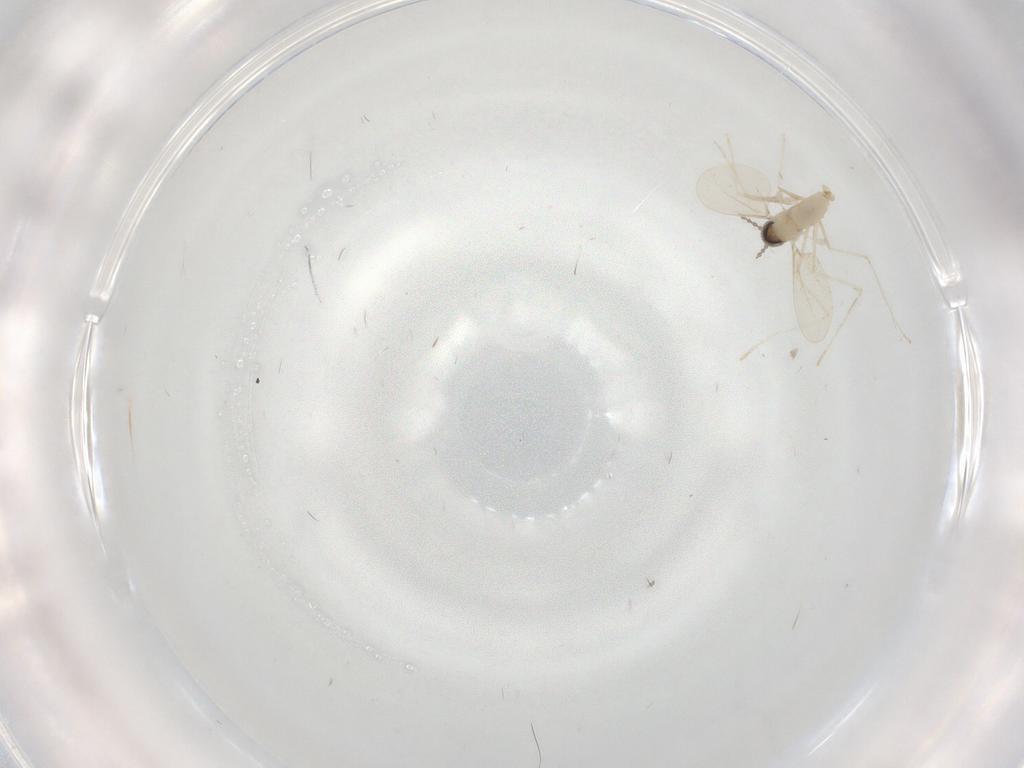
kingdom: Animalia
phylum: Arthropoda
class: Insecta
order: Diptera
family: Cecidomyiidae
